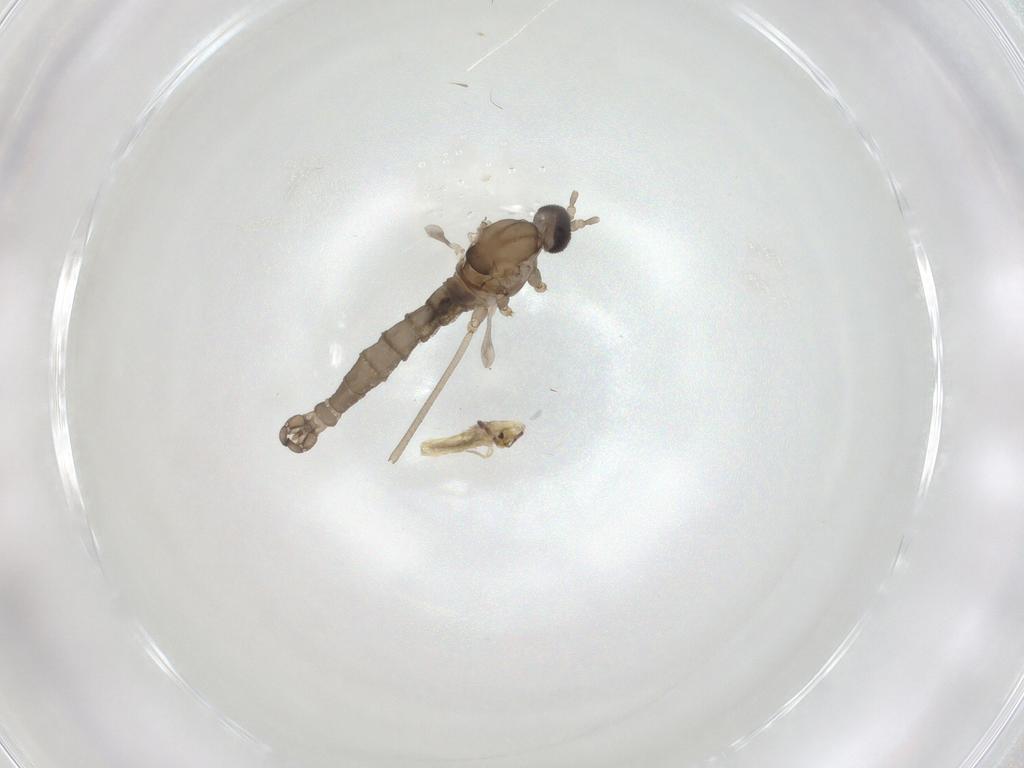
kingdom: Animalia
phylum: Arthropoda
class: Insecta
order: Diptera
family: Cecidomyiidae
